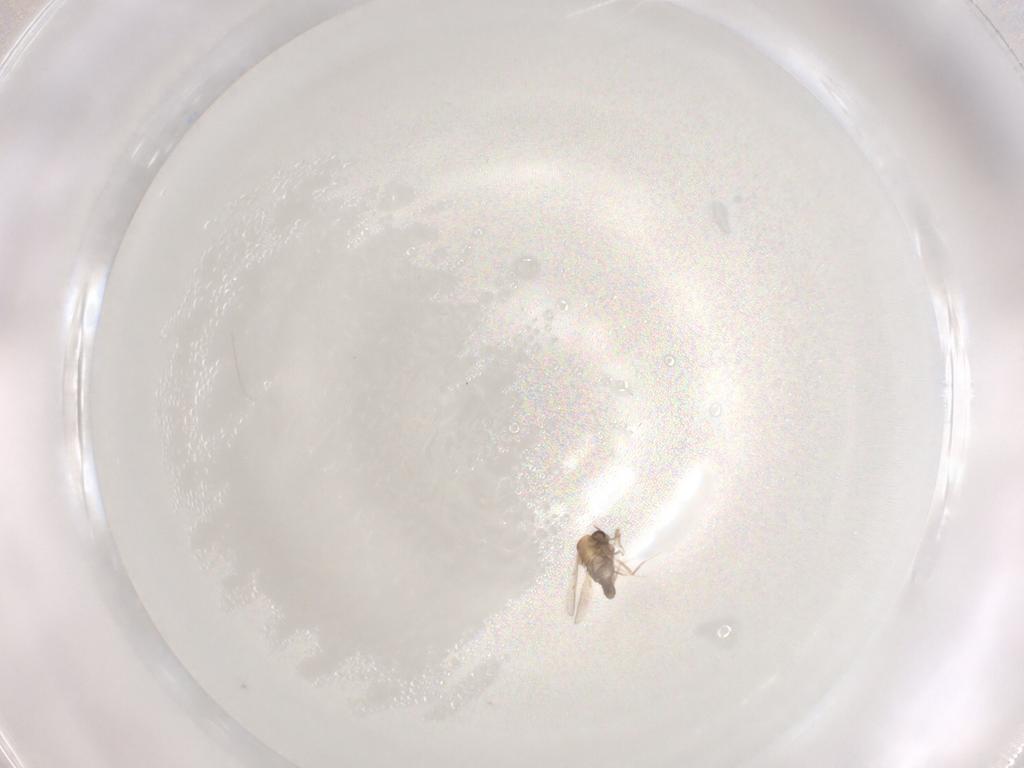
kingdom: Animalia
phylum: Arthropoda
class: Insecta
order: Diptera
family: Ceratopogonidae
